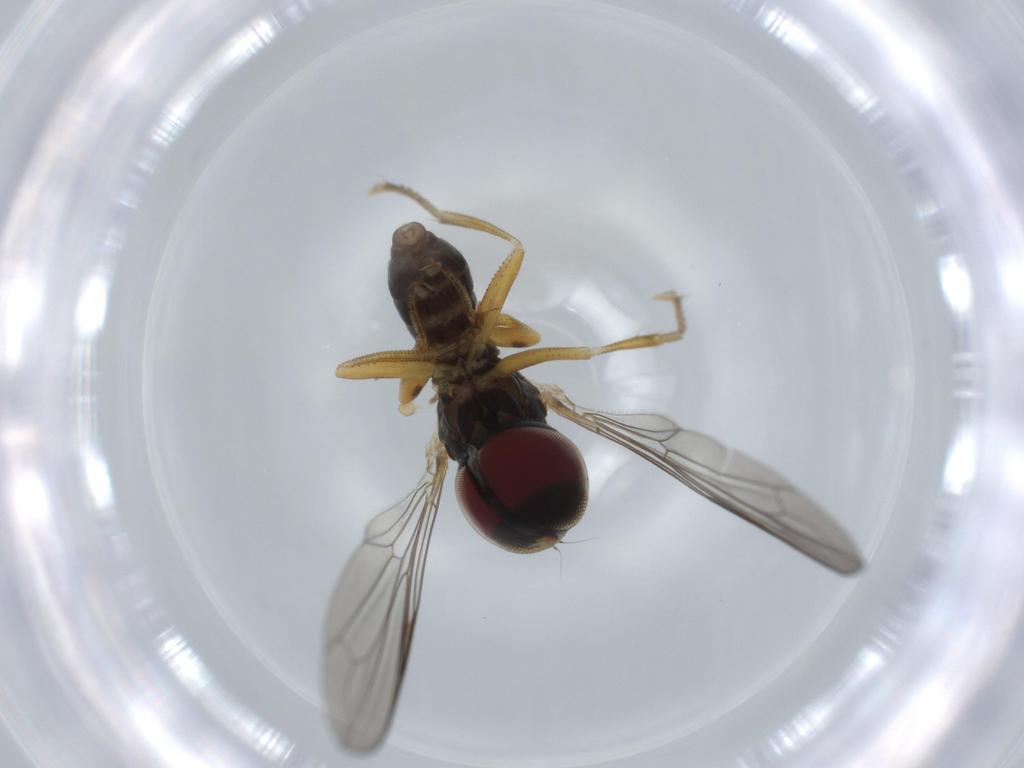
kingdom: Animalia
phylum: Arthropoda
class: Insecta
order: Diptera
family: Pipunculidae
